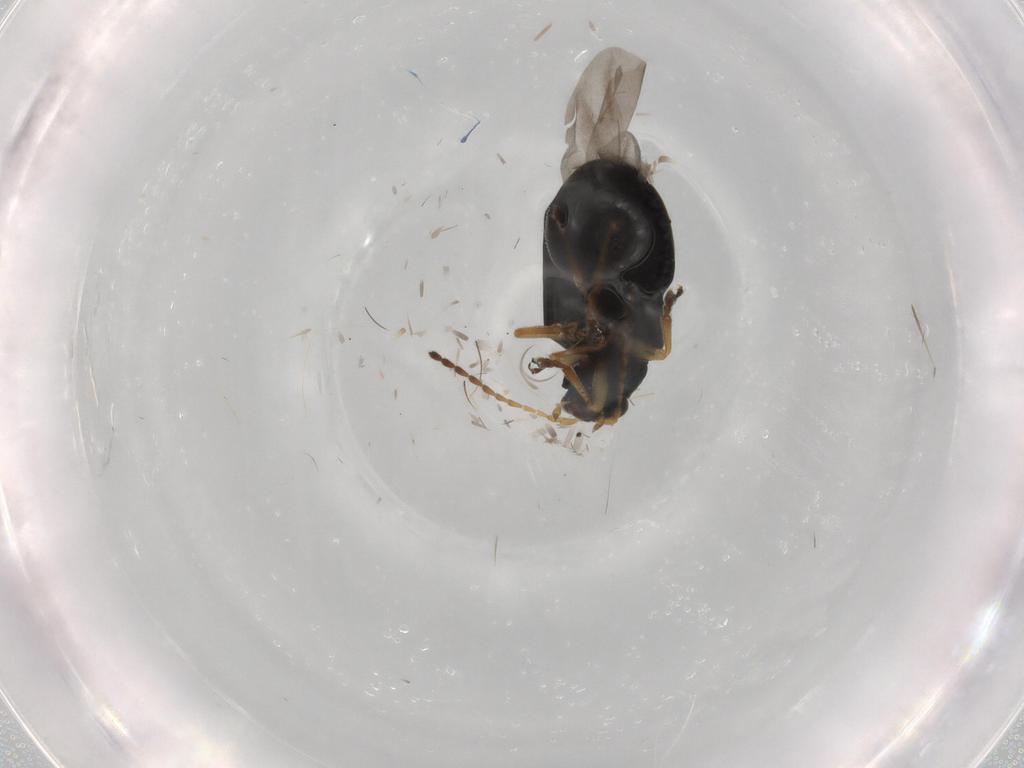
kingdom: Animalia
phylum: Arthropoda
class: Insecta
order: Coleoptera
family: Chrysomelidae
